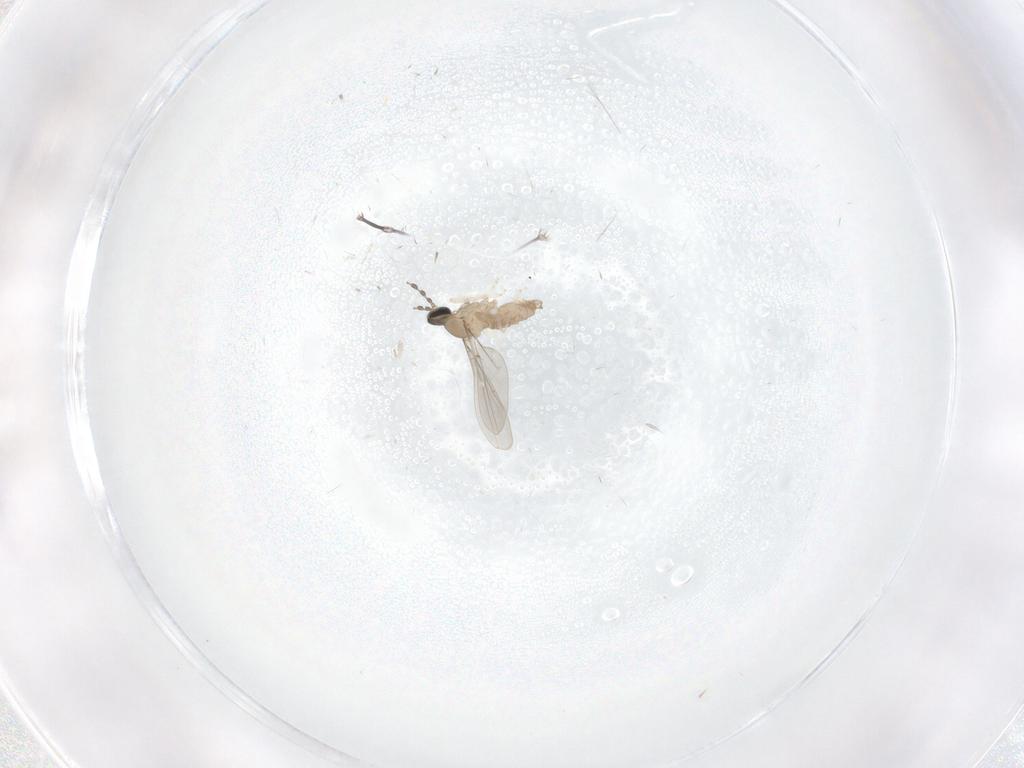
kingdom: Animalia
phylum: Arthropoda
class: Insecta
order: Diptera
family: Cecidomyiidae
